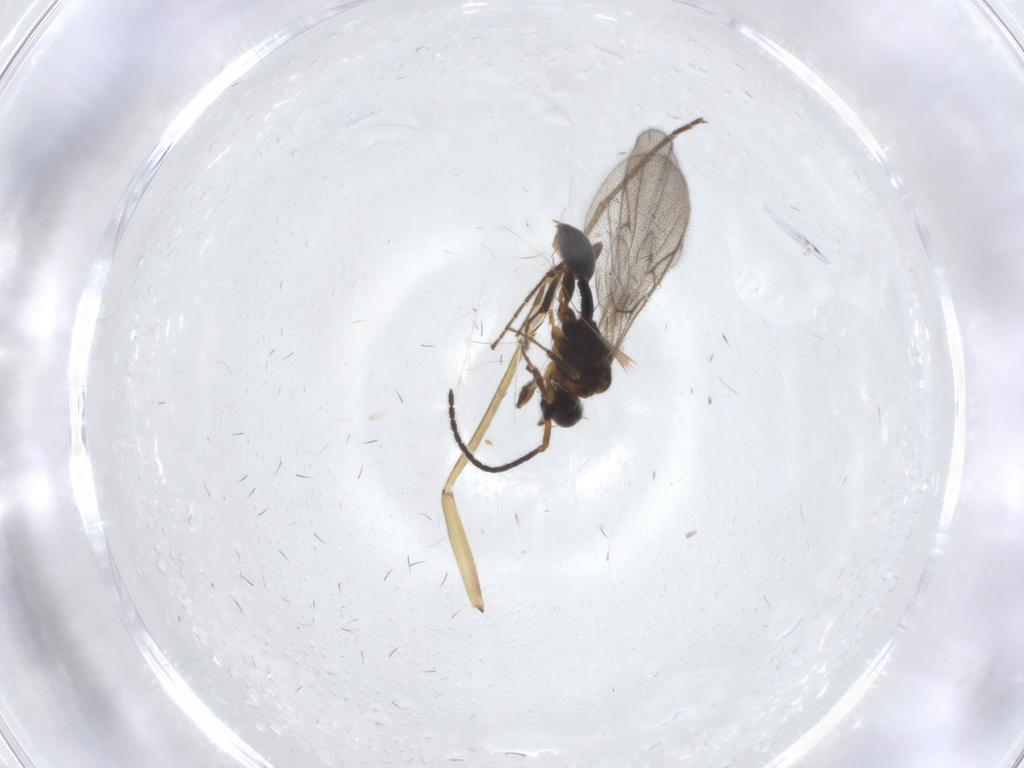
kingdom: Animalia
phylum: Arthropoda
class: Insecta
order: Hymenoptera
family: Diapriidae
